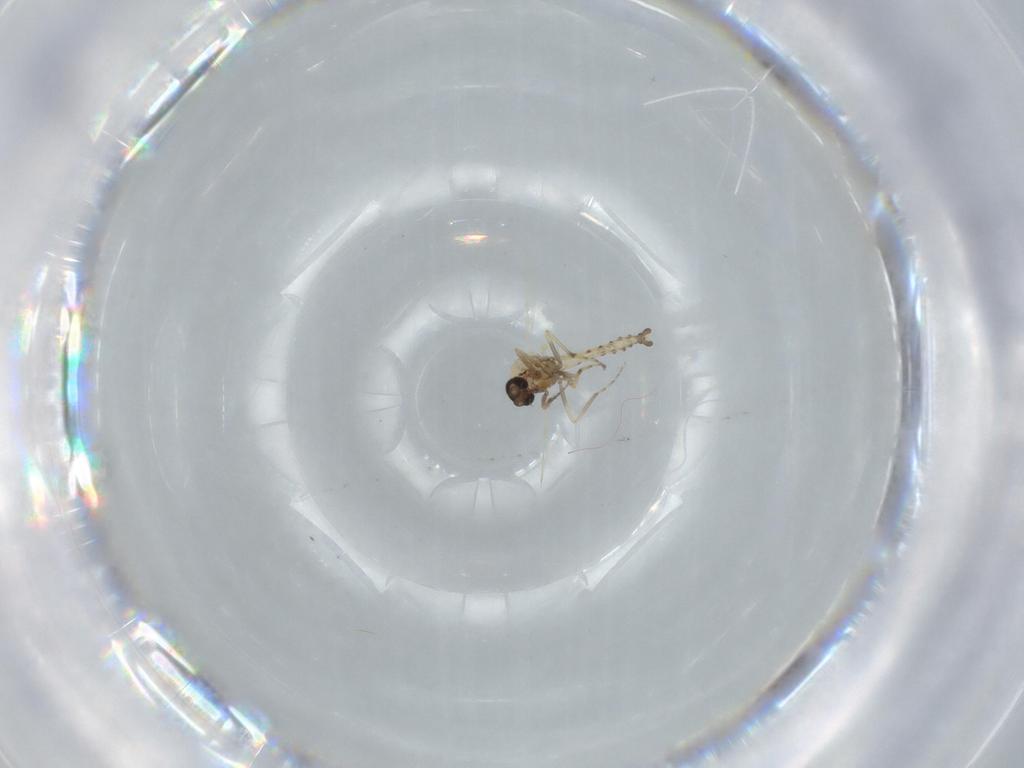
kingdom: Animalia
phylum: Arthropoda
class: Insecta
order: Diptera
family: Ceratopogonidae
